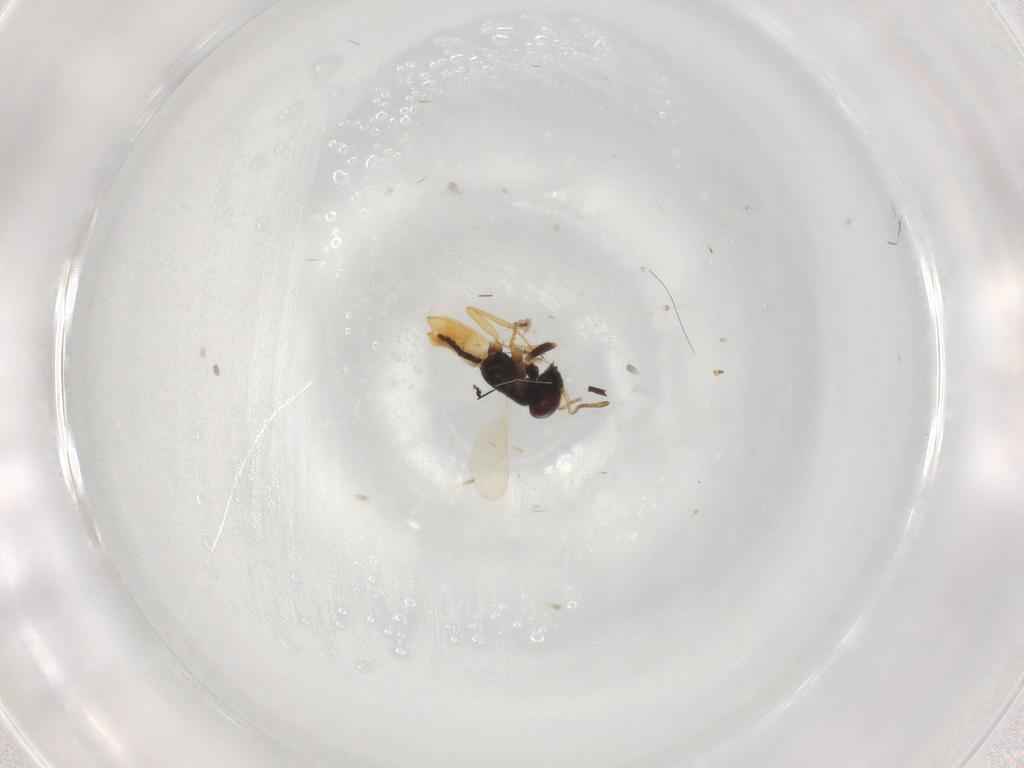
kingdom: Animalia
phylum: Arthropoda
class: Insecta
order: Hymenoptera
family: Encyrtidae
